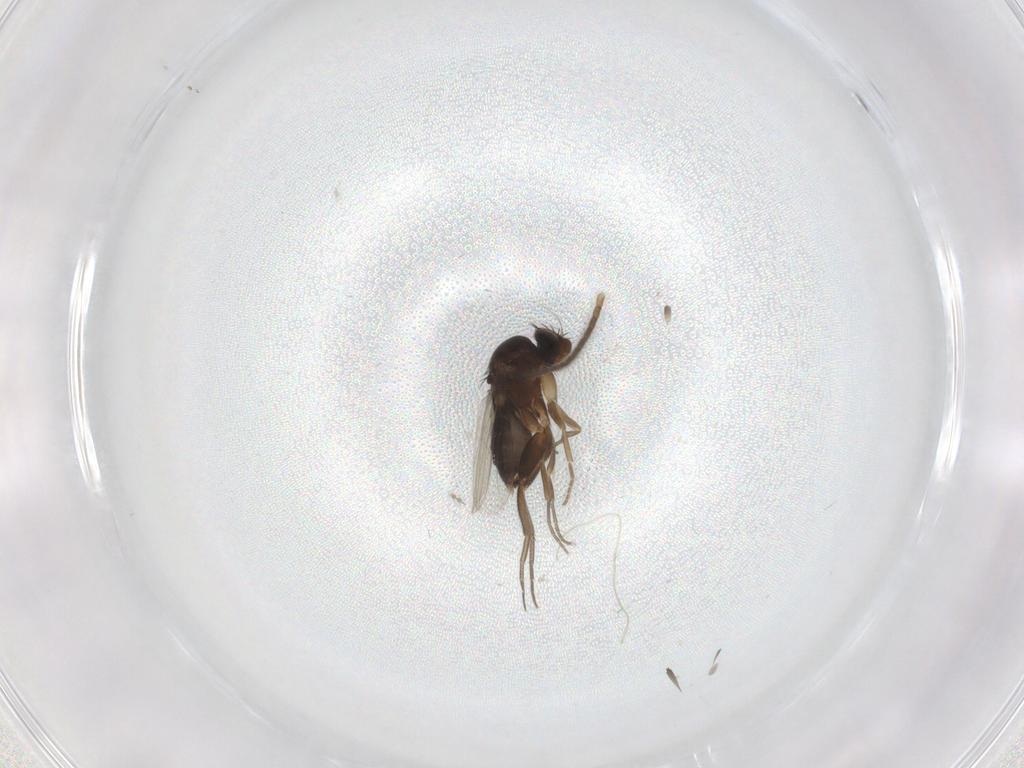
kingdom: Animalia
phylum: Arthropoda
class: Insecta
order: Diptera
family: Phoridae
